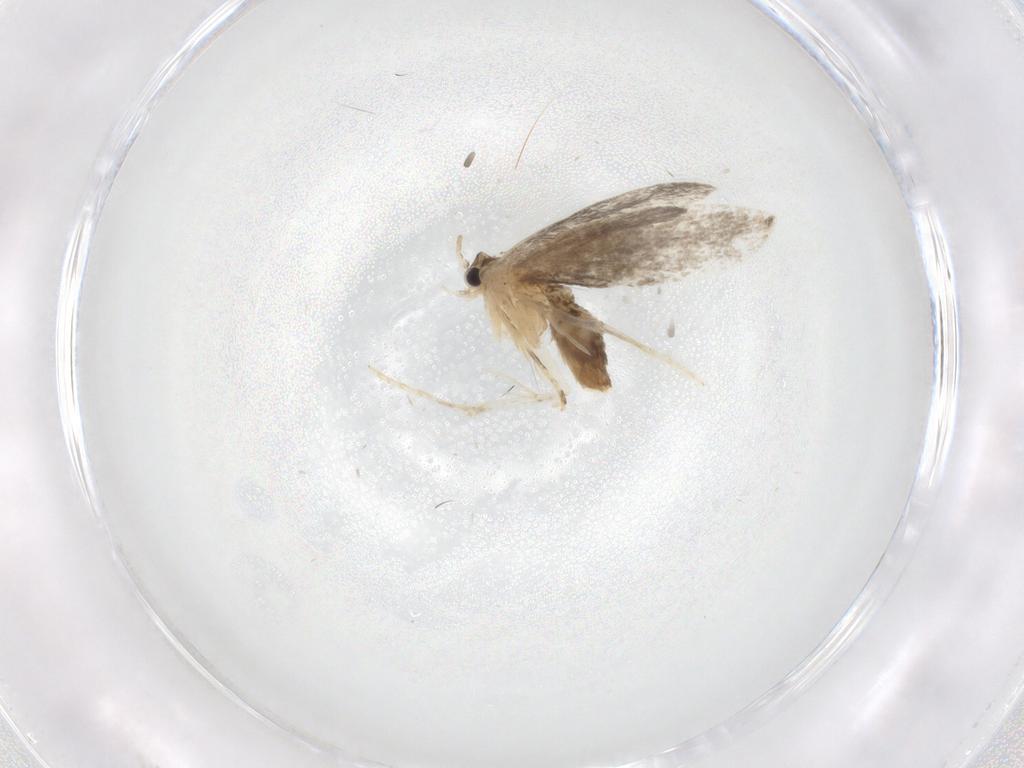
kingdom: Animalia
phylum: Arthropoda
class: Insecta
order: Lepidoptera
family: Tineidae
